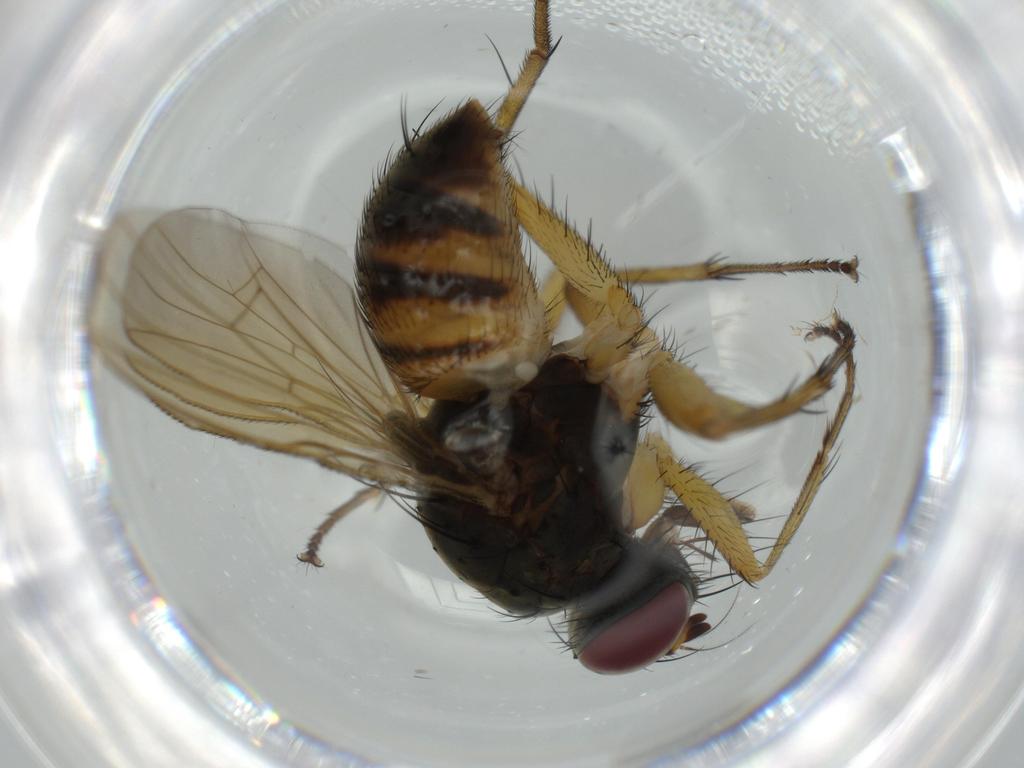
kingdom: Animalia
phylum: Arthropoda
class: Insecta
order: Diptera
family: Muscidae
